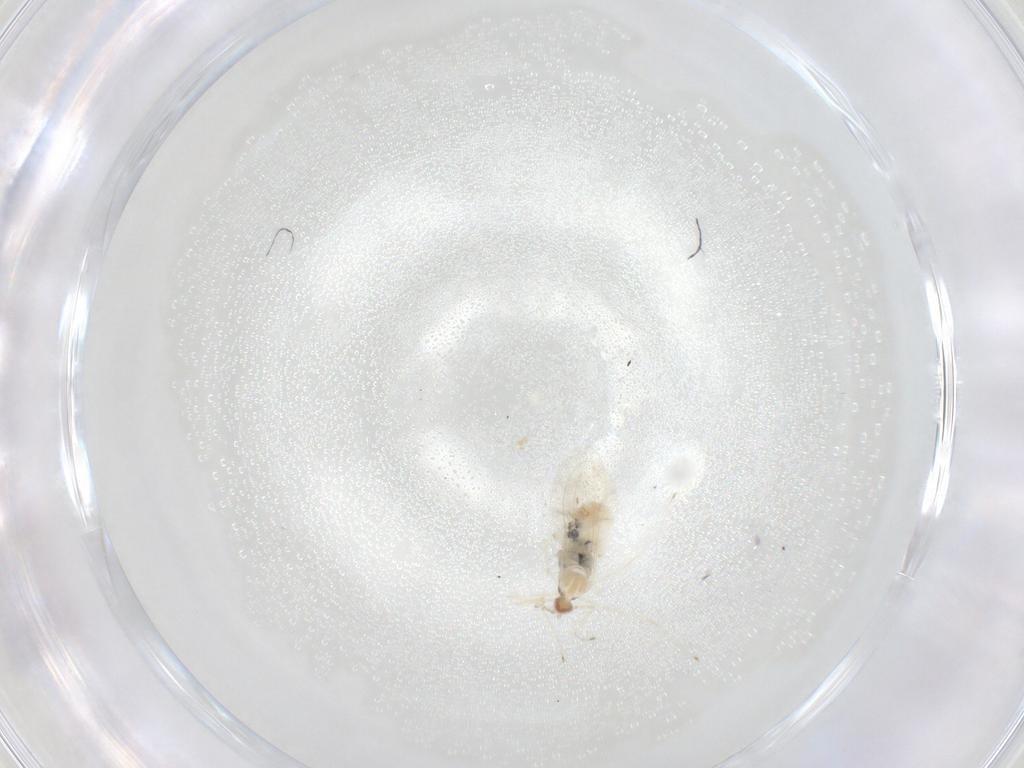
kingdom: Animalia
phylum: Arthropoda
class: Insecta
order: Diptera
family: Cecidomyiidae
